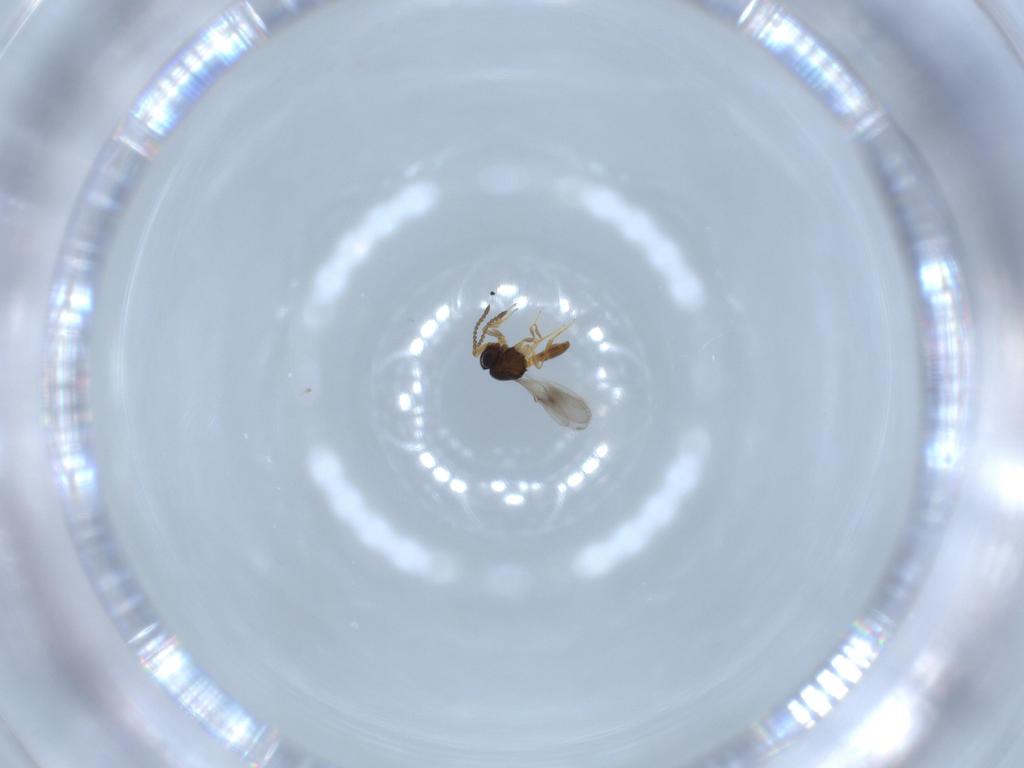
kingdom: Animalia
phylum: Arthropoda
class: Insecta
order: Hymenoptera
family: Scelionidae
